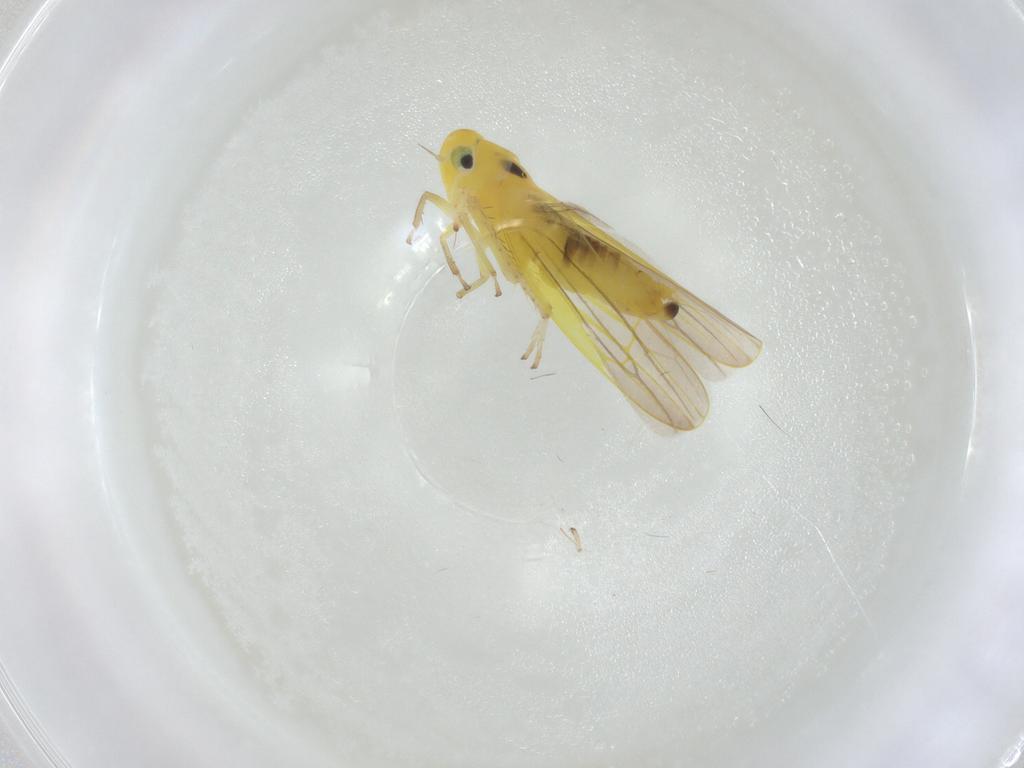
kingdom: Animalia
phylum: Arthropoda
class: Insecta
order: Hemiptera
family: Cicadellidae
